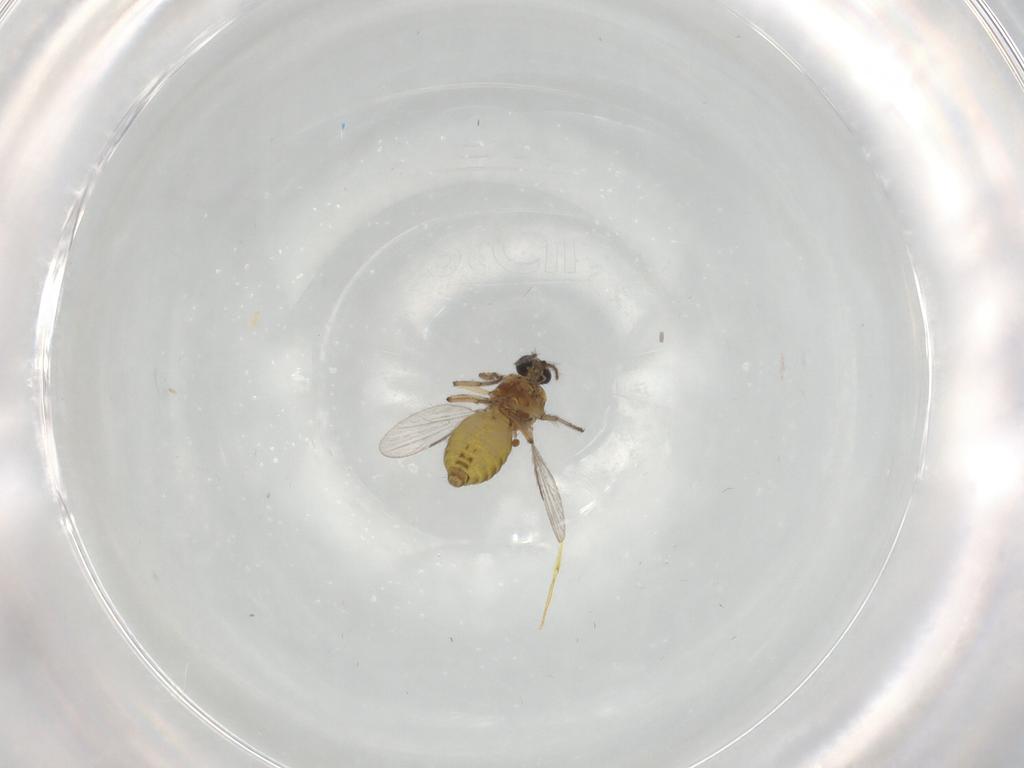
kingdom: Animalia
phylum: Arthropoda
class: Insecta
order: Diptera
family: Ceratopogonidae
